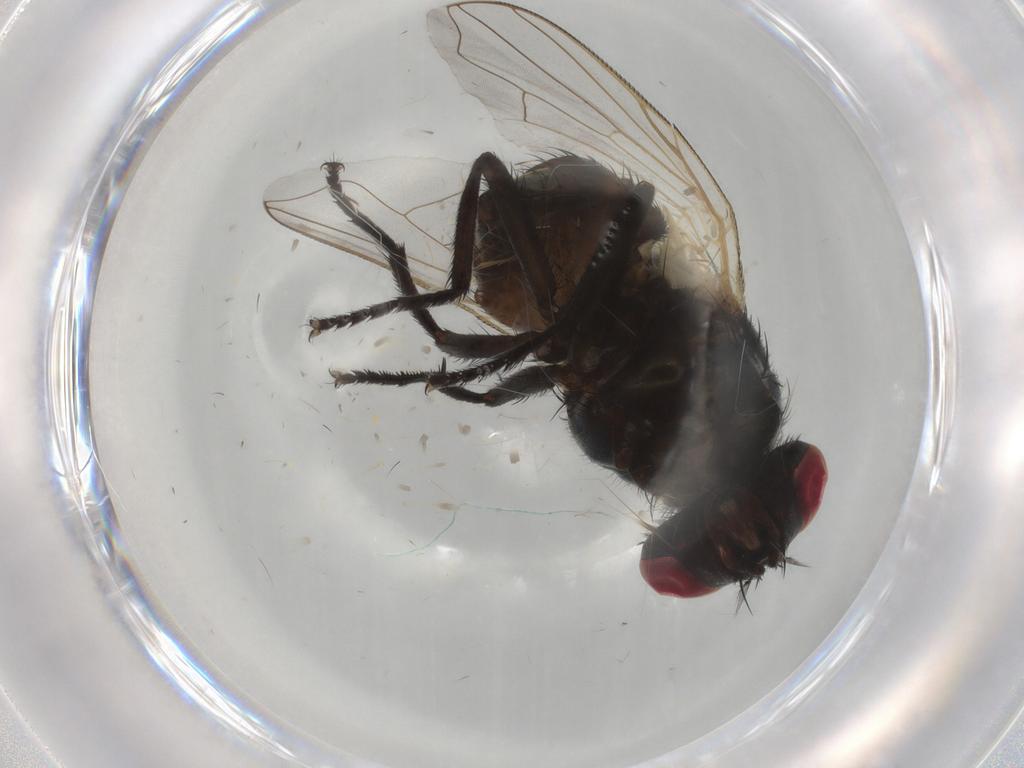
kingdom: Animalia
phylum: Arthropoda
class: Insecta
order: Diptera
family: Muscidae
